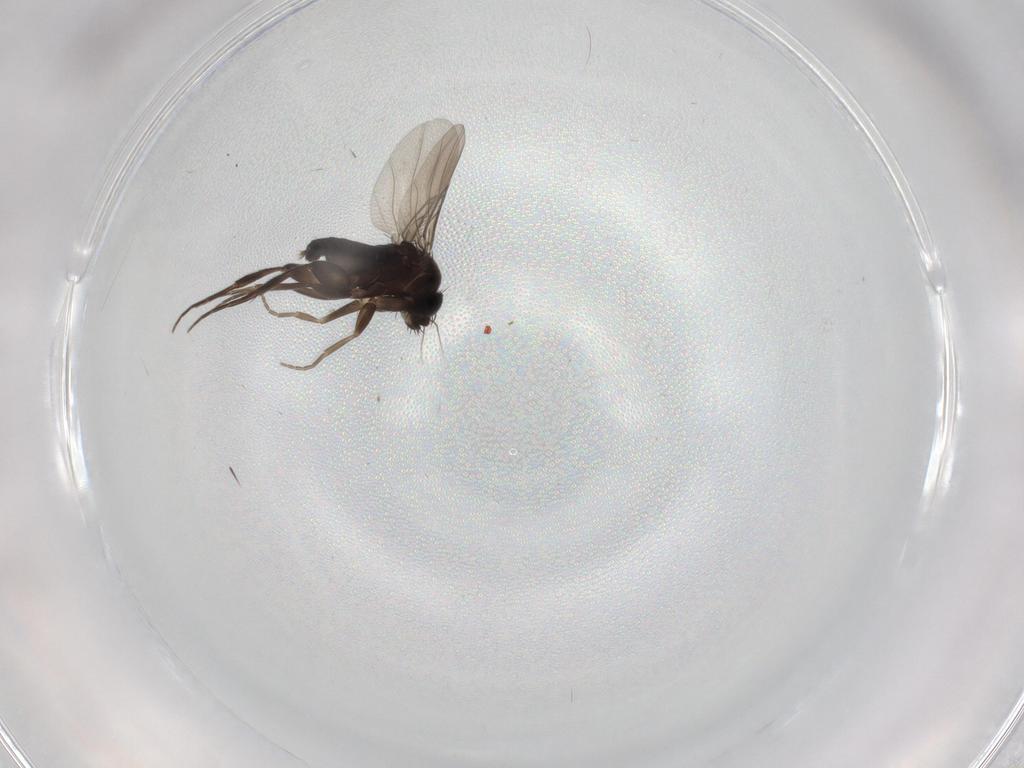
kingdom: Animalia
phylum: Arthropoda
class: Insecta
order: Diptera
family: Phoridae
